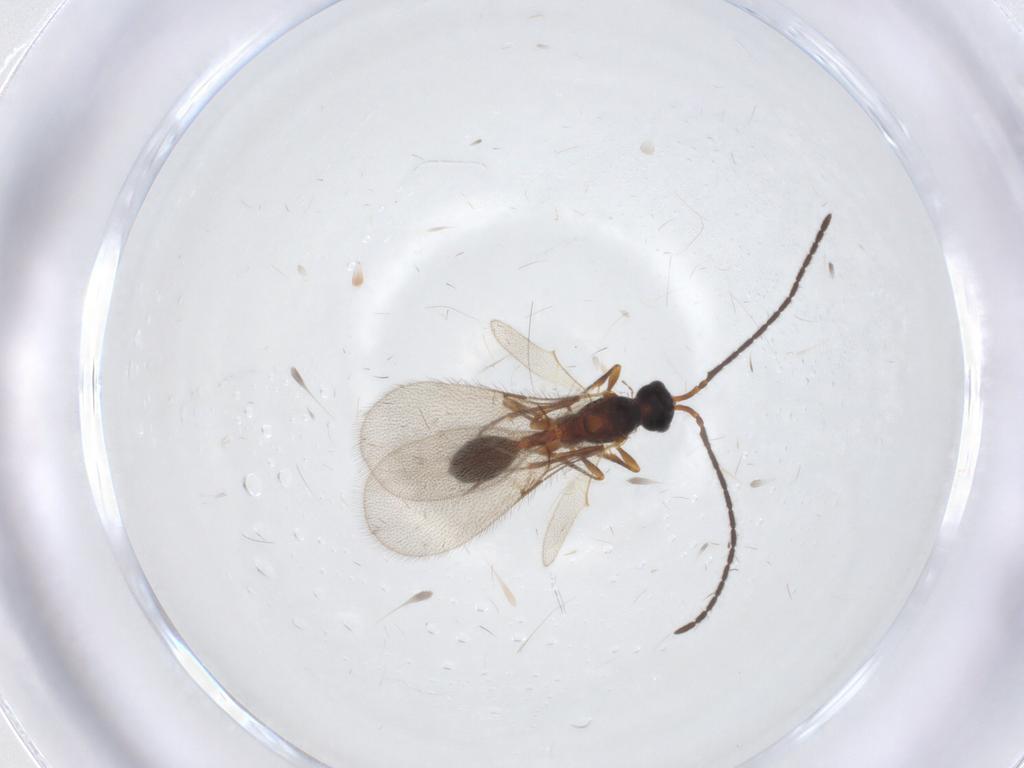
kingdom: Animalia
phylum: Arthropoda
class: Insecta
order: Hymenoptera
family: Diapriidae
